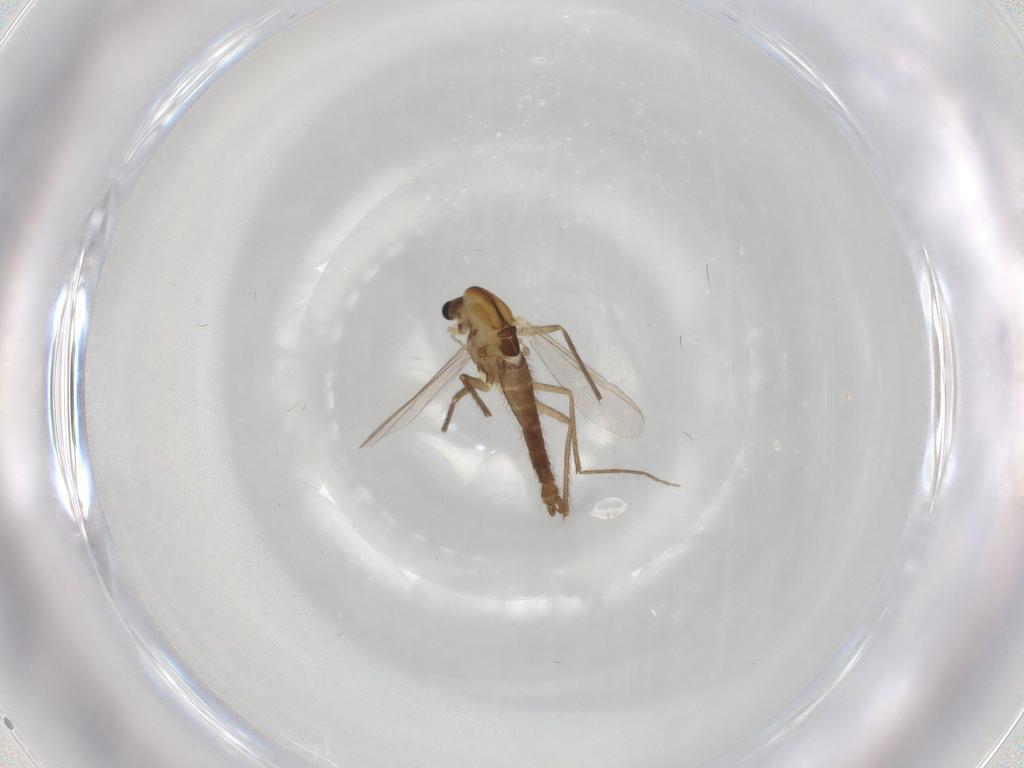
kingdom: Animalia
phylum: Arthropoda
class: Insecta
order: Diptera
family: Chironomidae
